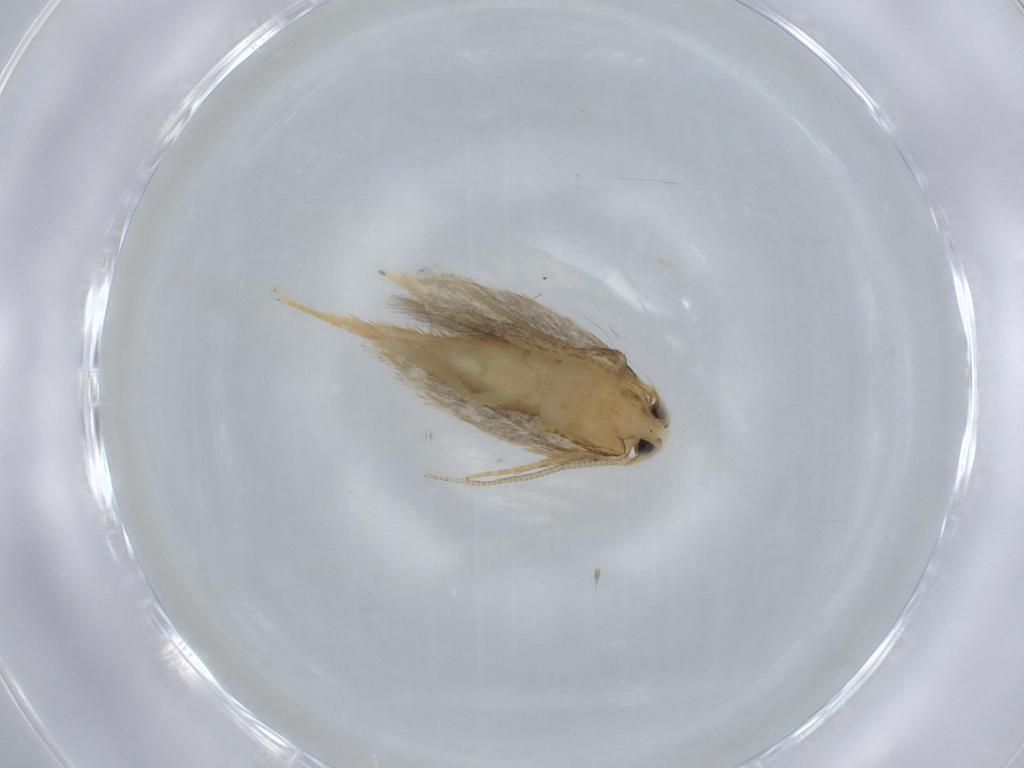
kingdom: Animalia
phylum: Arthropoda
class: Insecta
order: Lepidoptera
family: Opostegidae
